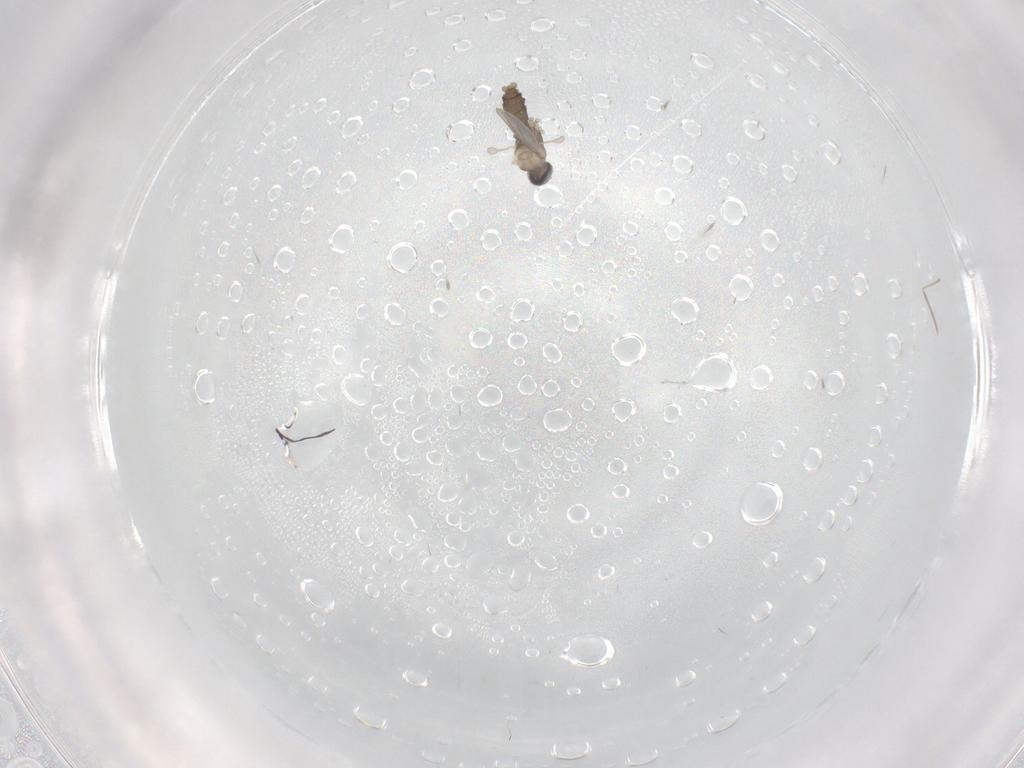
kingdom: Animalia
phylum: Arthropoda
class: Insecta
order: Diptera
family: Cecidomyiidae
